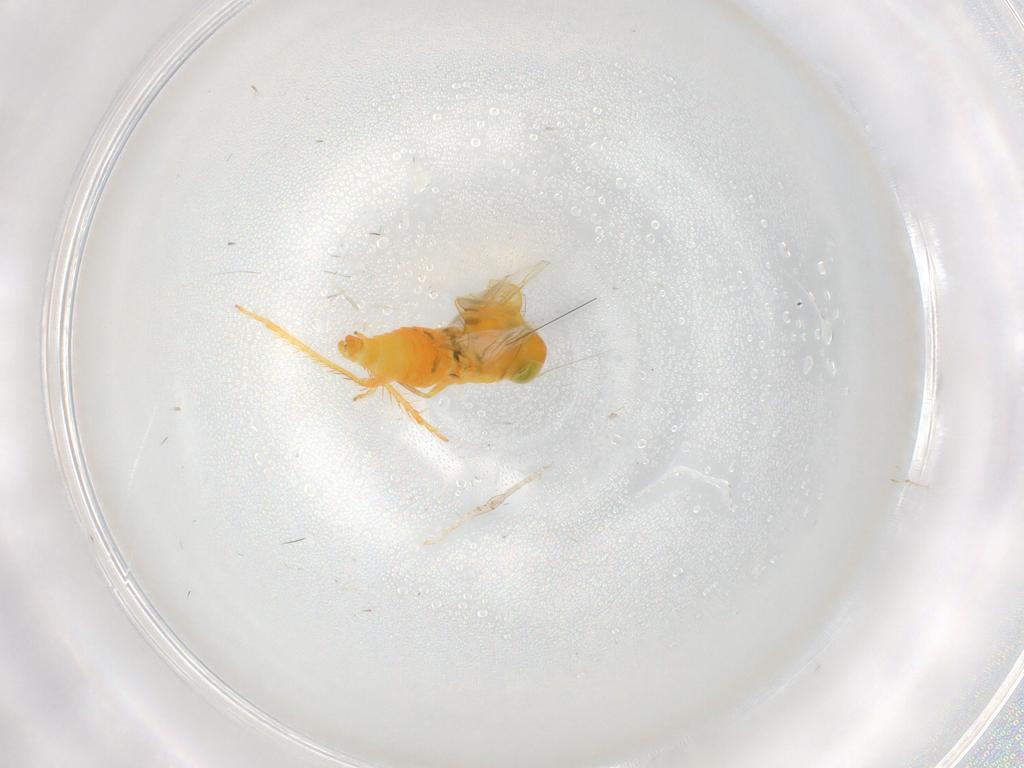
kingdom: Animalia
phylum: Arthropoda
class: Insecta
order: Hemiptera
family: Cicadellidae
